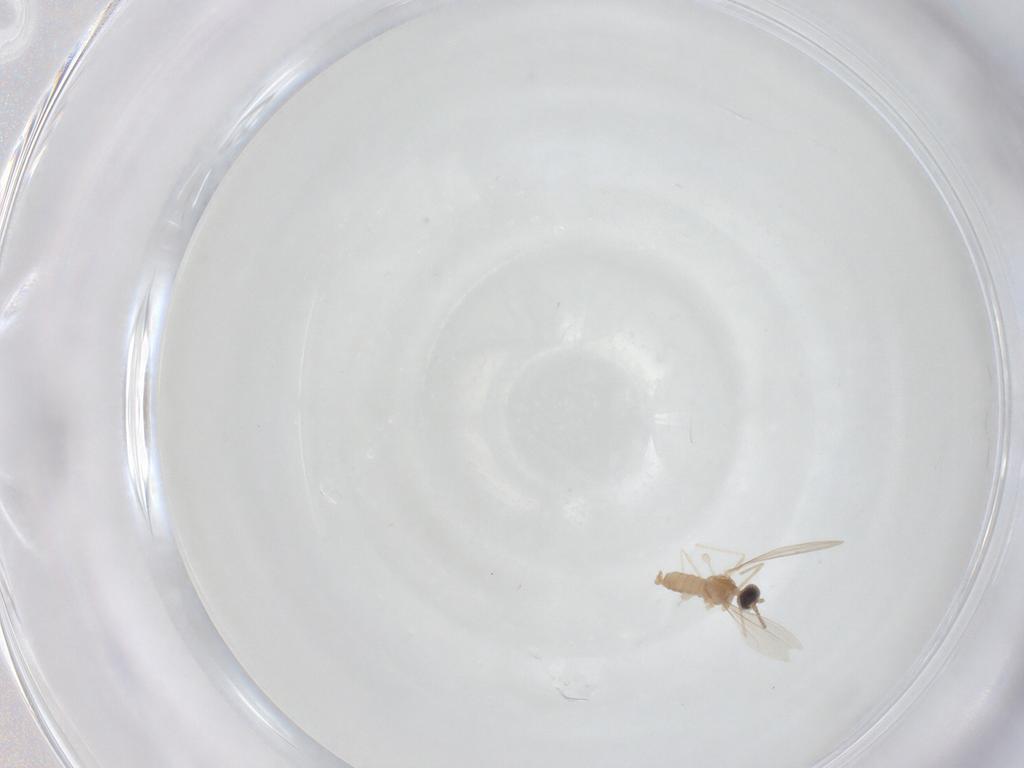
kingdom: Animalia
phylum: Arthropoda
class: Insecta
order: Diptera
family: Cecidomyiidae
